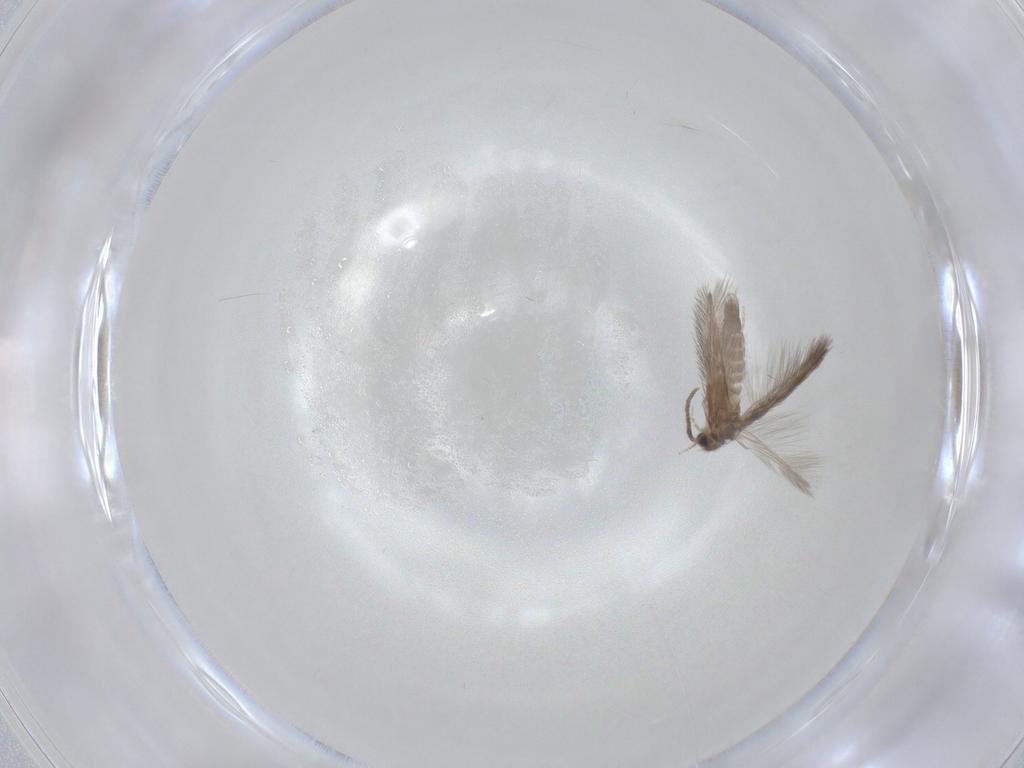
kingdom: Animalia
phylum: Arthropoda
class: Insecta
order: Trichoptera
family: Hydroptilidae
